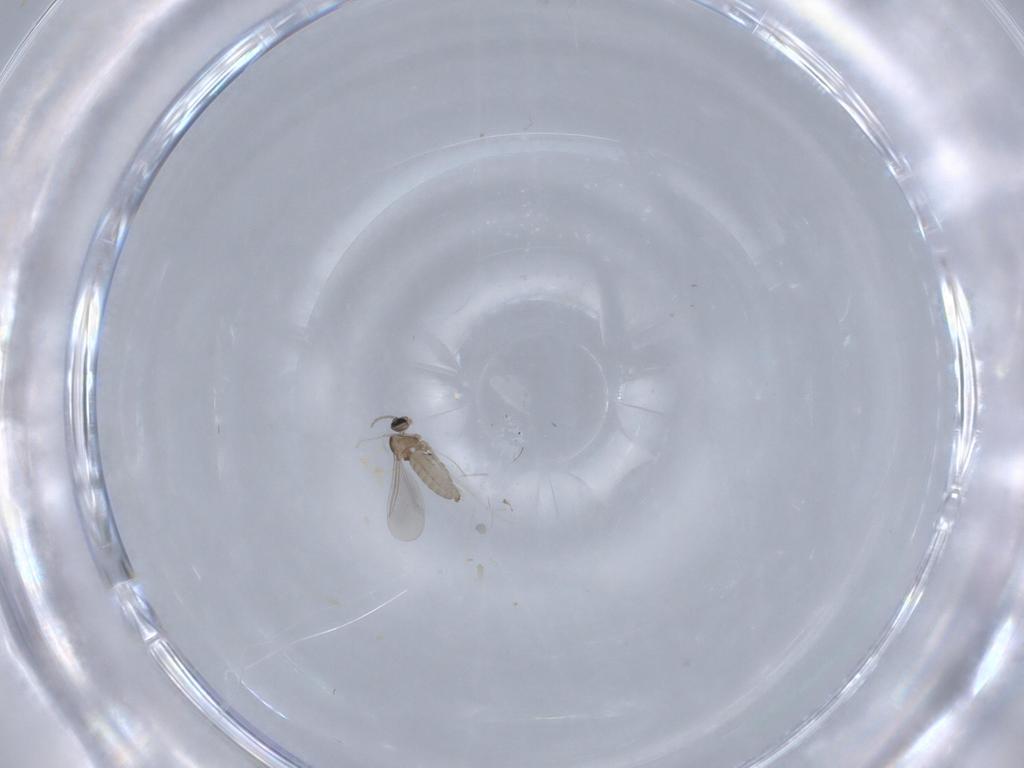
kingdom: Animalia
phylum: Arthropoda
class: Insecta
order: Diptera
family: Cecidomyiidae
